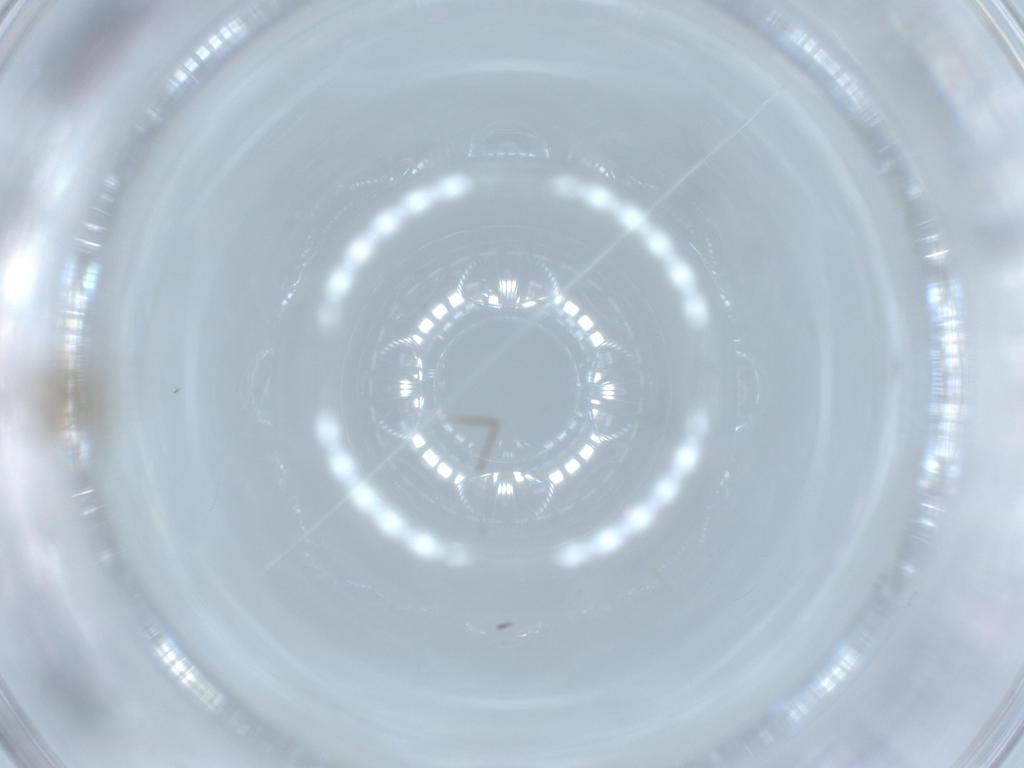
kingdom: Animalia
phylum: Arthropoda
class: Insecta
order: Diptera
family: Chironomidae
